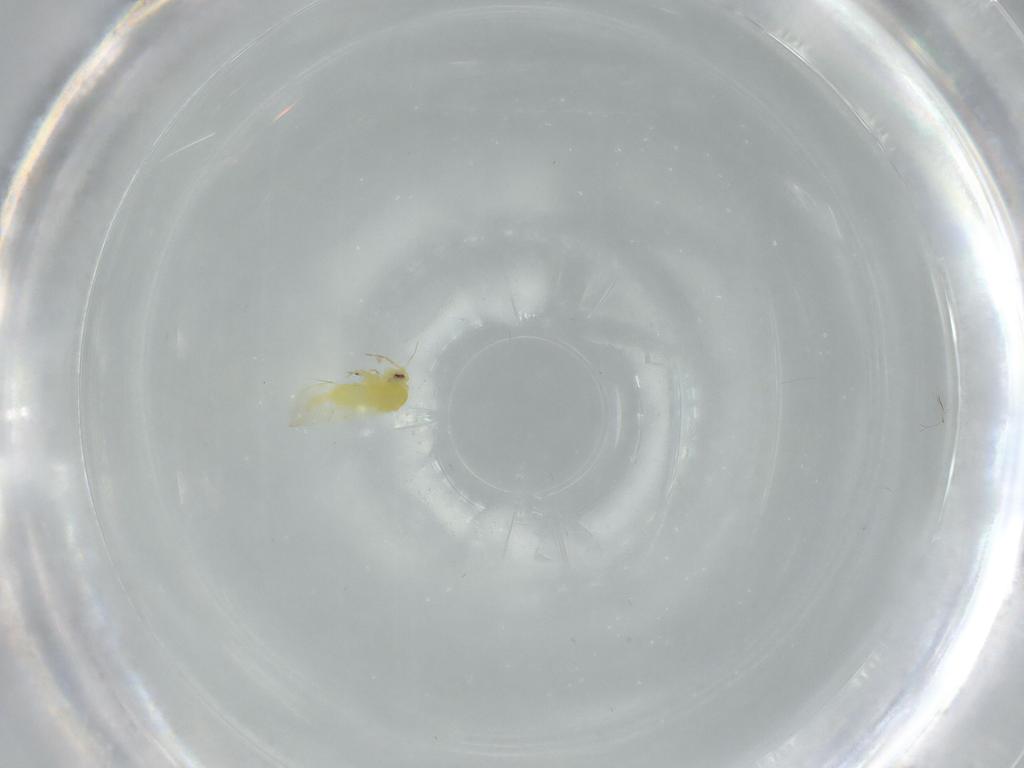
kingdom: Animalia
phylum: Arthropoda
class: Insecta
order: Hemiptera
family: Aleyrodidae
